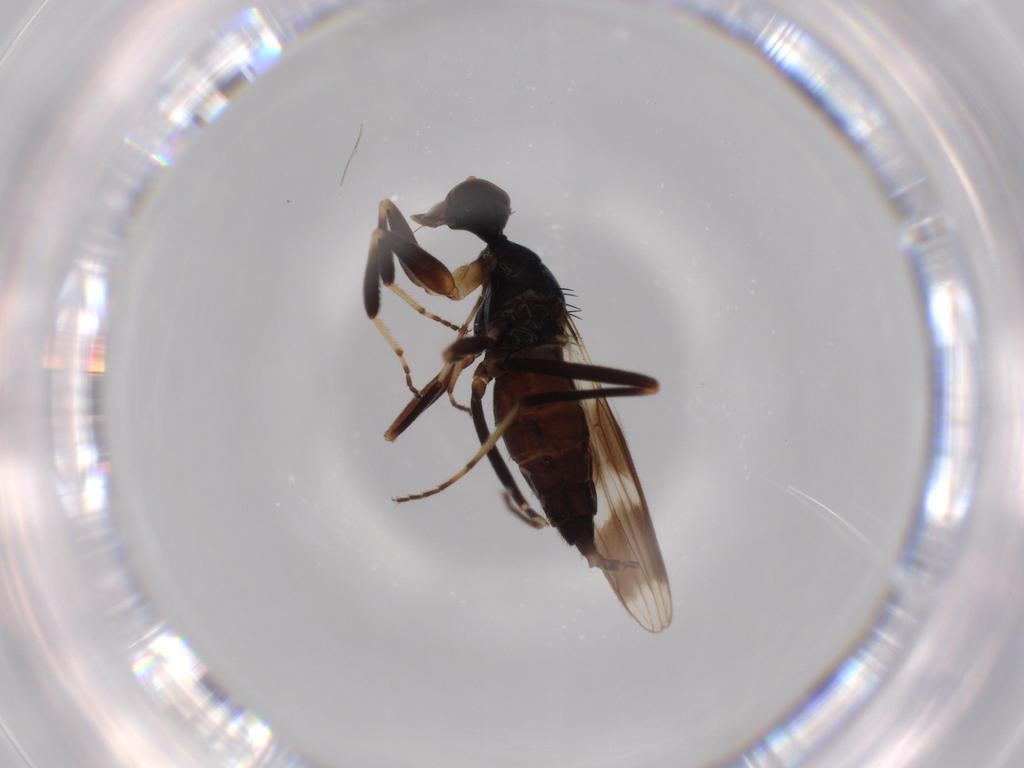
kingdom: Animalia
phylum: Arthropoda
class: Insecta
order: Diptera
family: Hybotidae
